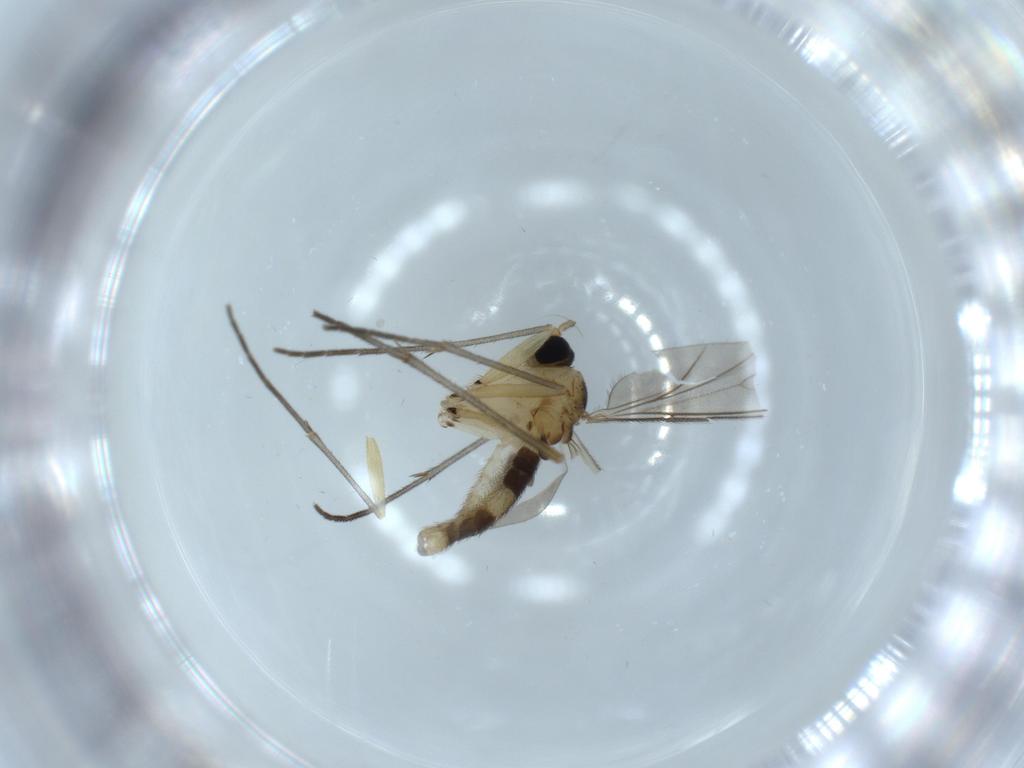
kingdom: Animalia
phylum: Arthropoda
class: Insecta
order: Diptera
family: Sciaridae
